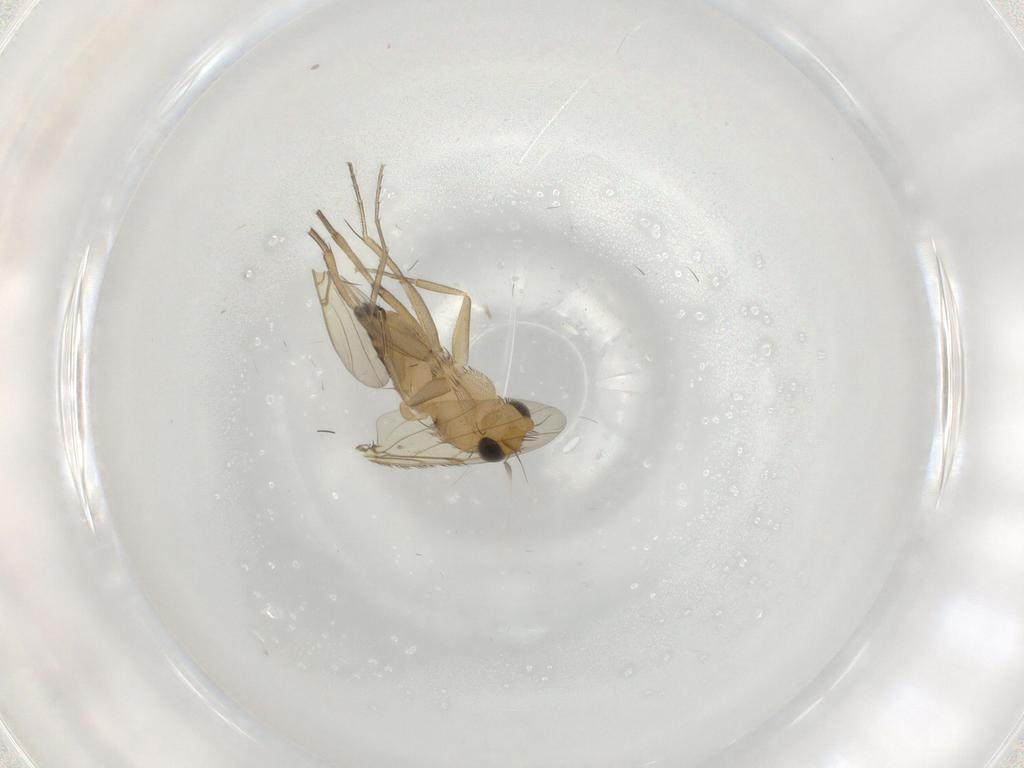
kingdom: Animalia
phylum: Arthropoda
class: Insecta
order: Diptera
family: Phoridae
